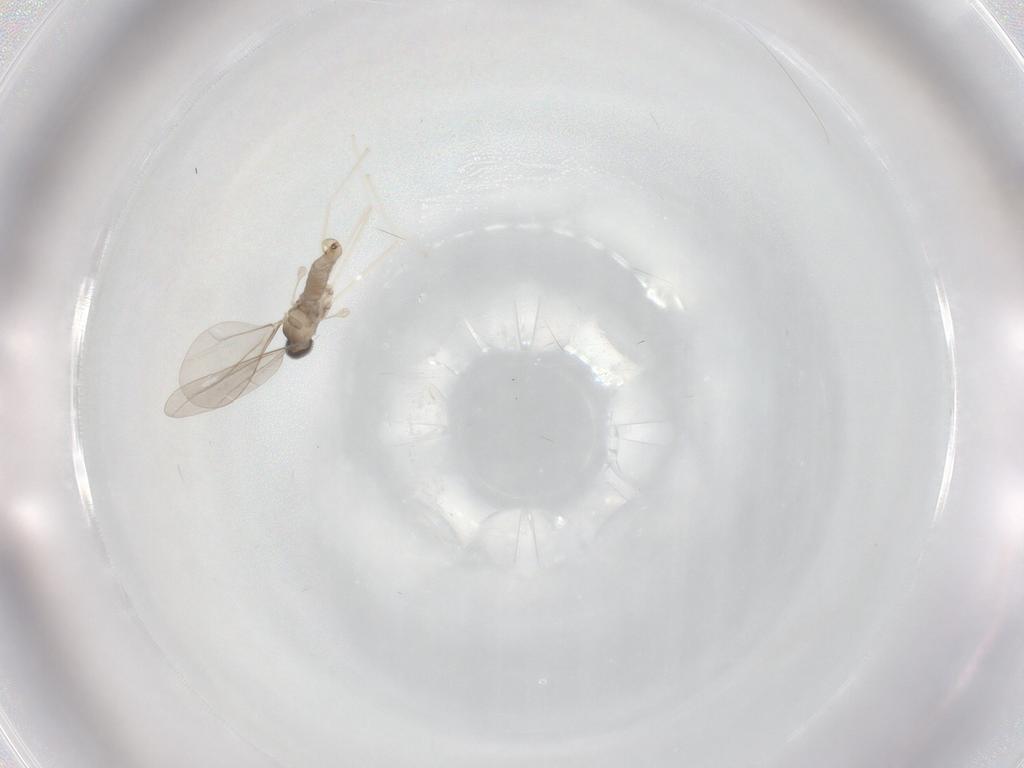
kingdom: Animalia
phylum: Arthropoda
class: Insecta
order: Diptera
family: Cecidomyiidae
